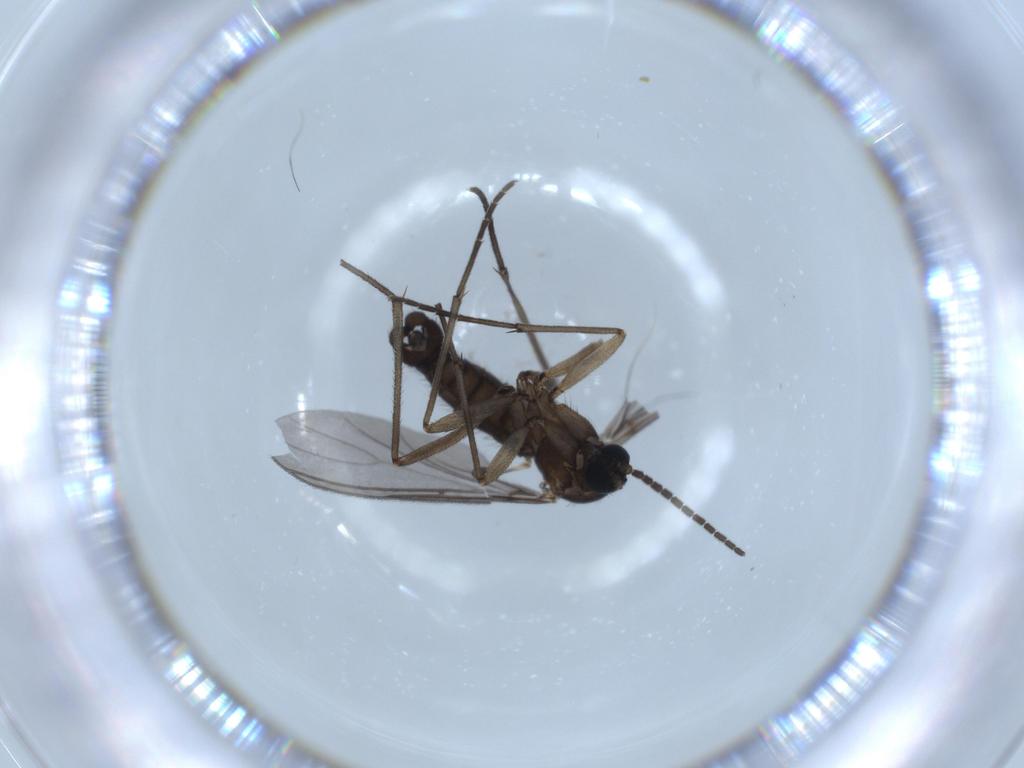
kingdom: Animalia
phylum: Arthropoda
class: Insecta
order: Diptera
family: Sciaridae
